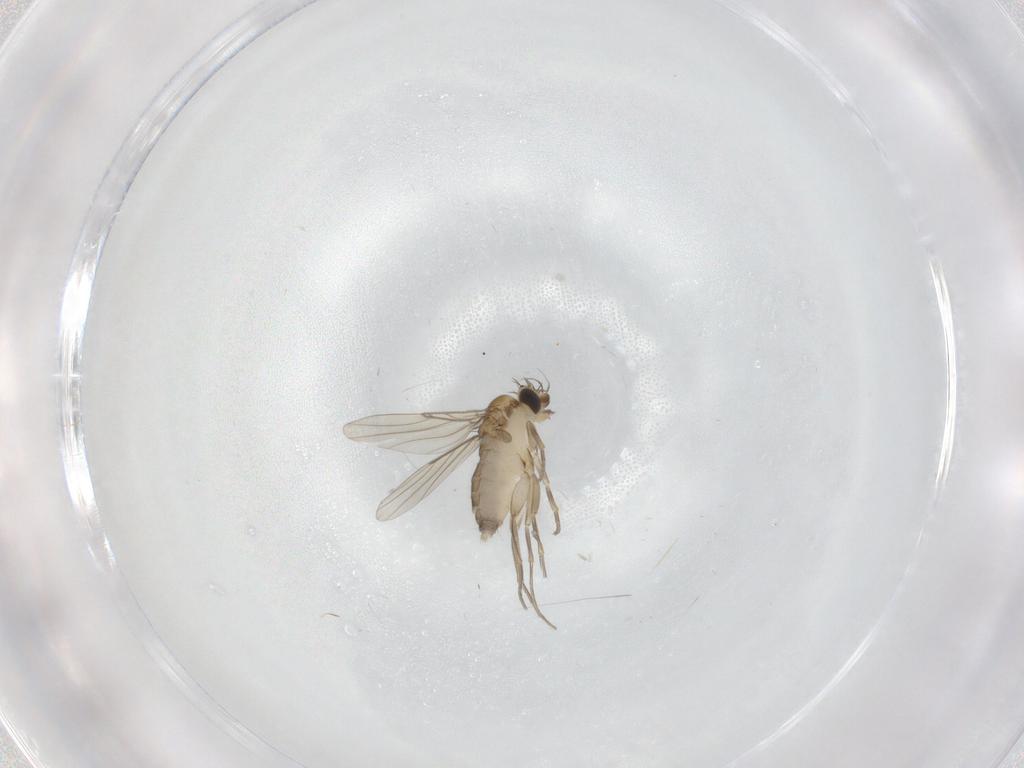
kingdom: Animalia
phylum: Arthropoda
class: Insecta
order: Diptera
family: Phoridae
